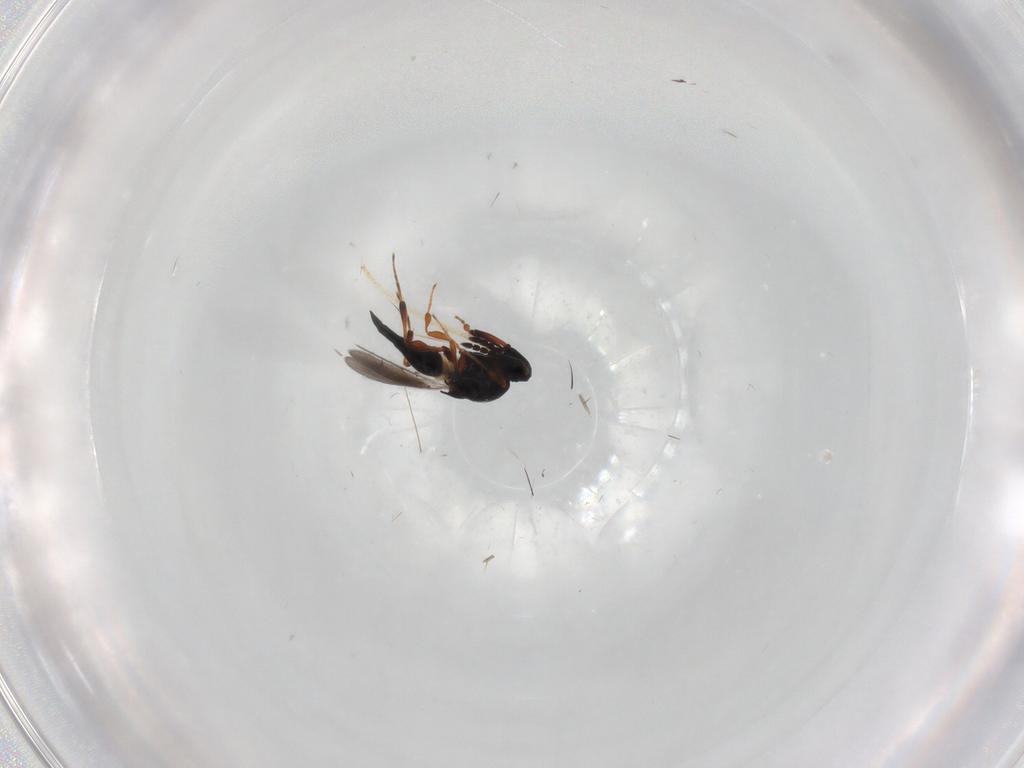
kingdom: Animalia
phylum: Arthropoda
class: Insecta
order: Hymenoptera
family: Platygastridae
